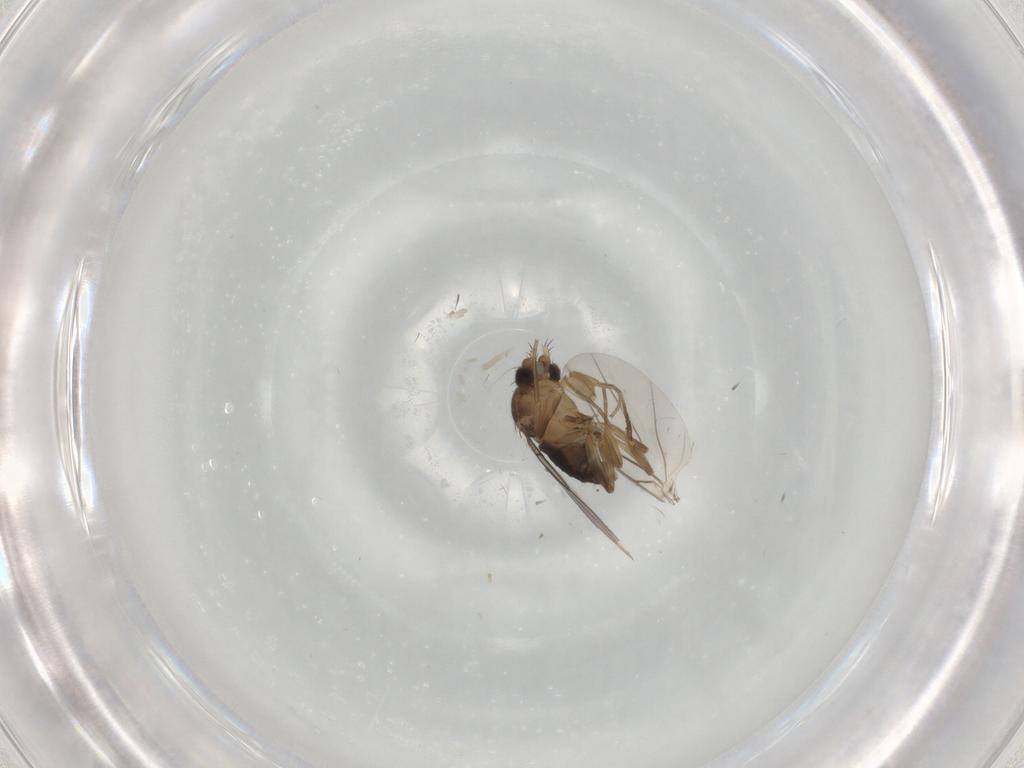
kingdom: Animalia
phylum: Arthropoda
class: Insecta
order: Diptera
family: Phoridae
